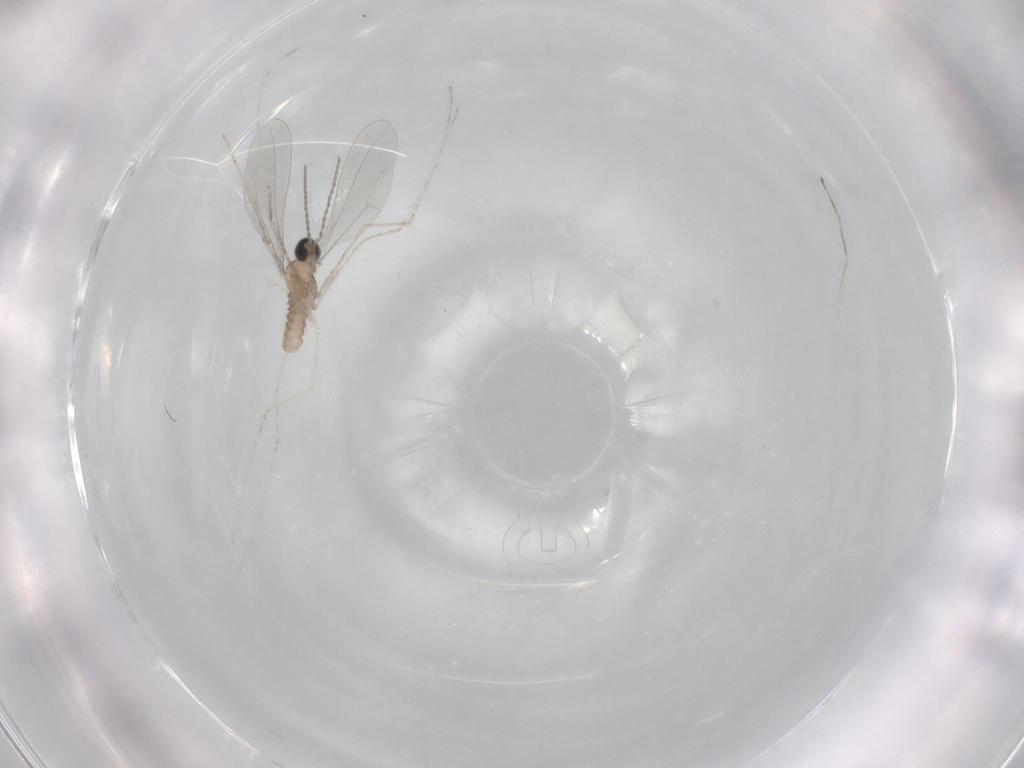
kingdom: Animalia
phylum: Arthropoda
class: Insecta
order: Diptera
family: Cecidomyiidae
